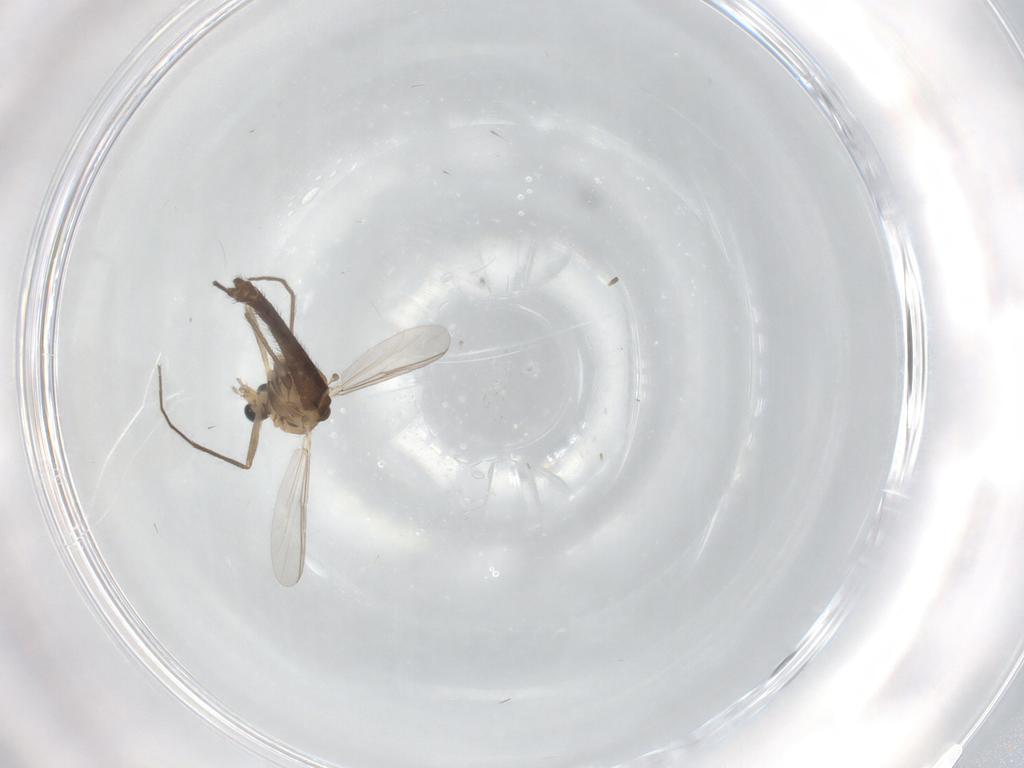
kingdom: Animalia
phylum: Arthropoda
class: Insecta
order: Diptera
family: Chironomidae
